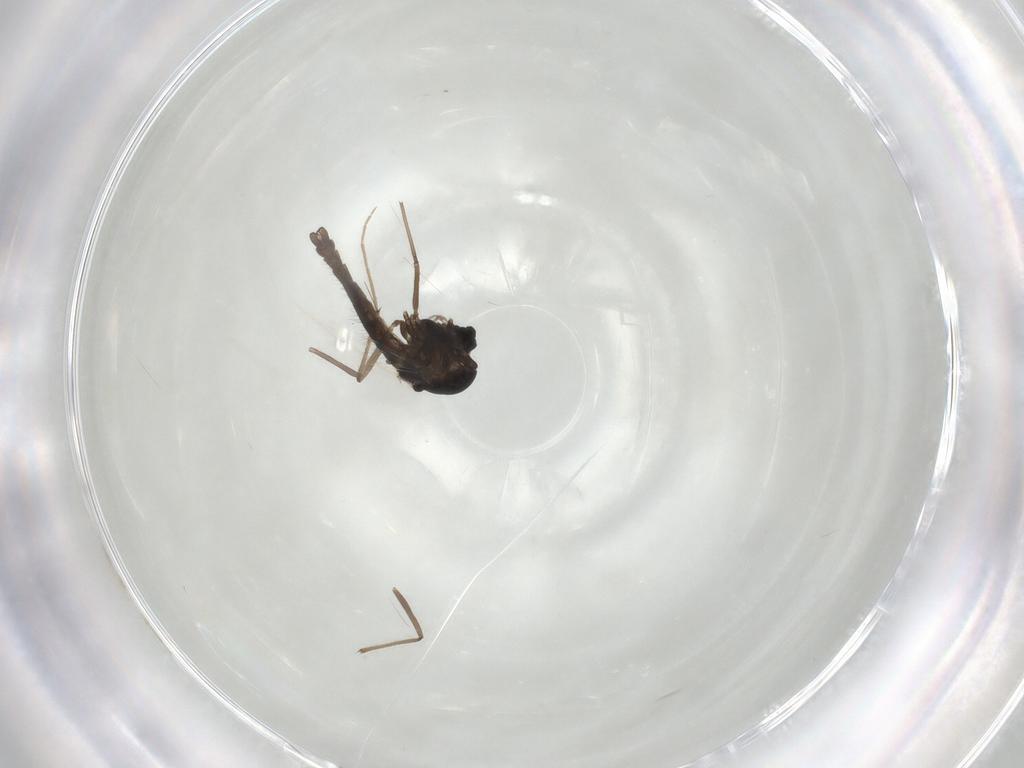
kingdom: Animalia
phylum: Arthropoda
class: Insecta
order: Diptera
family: Chironomidae
